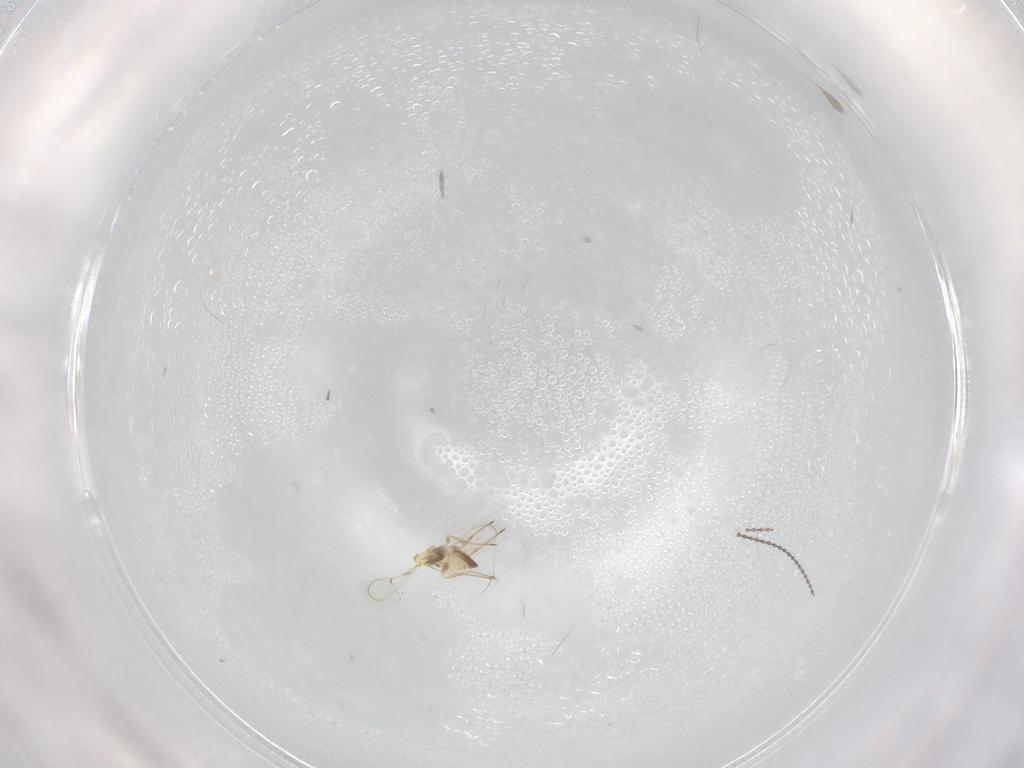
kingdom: Animalia
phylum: Arthropoda
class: Insecta
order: Hymenoptera
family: Trichogrammatidae
